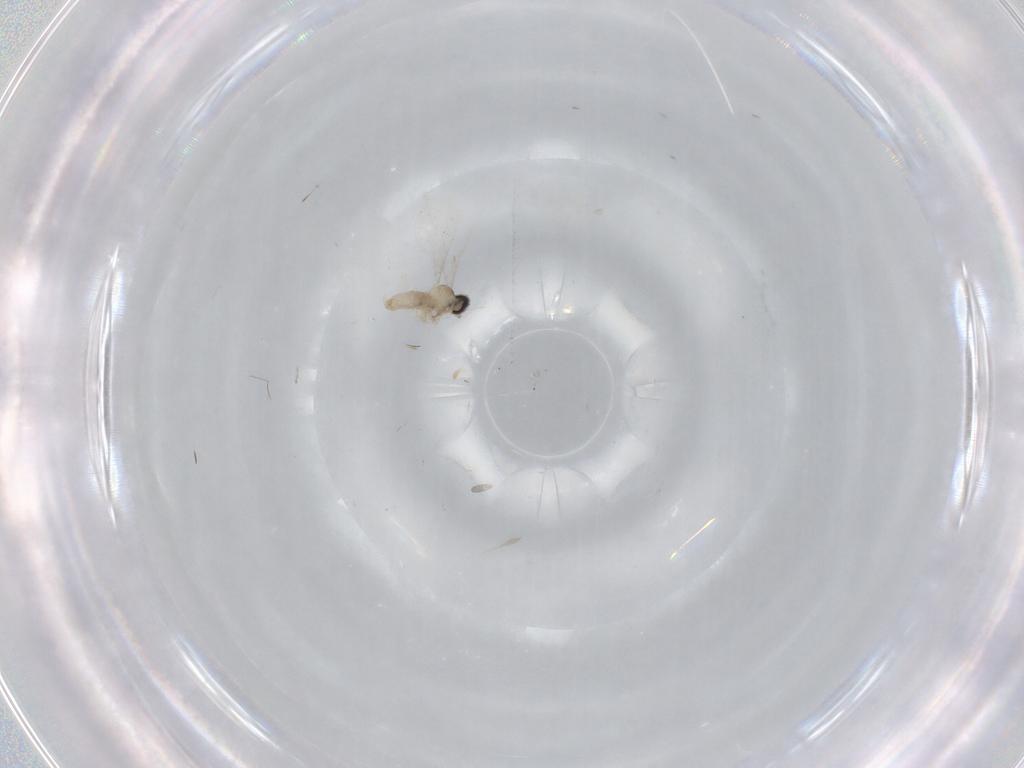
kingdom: Animalia
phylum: Arthropoda
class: Insecta
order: Diptera
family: Cecidomyiidae
